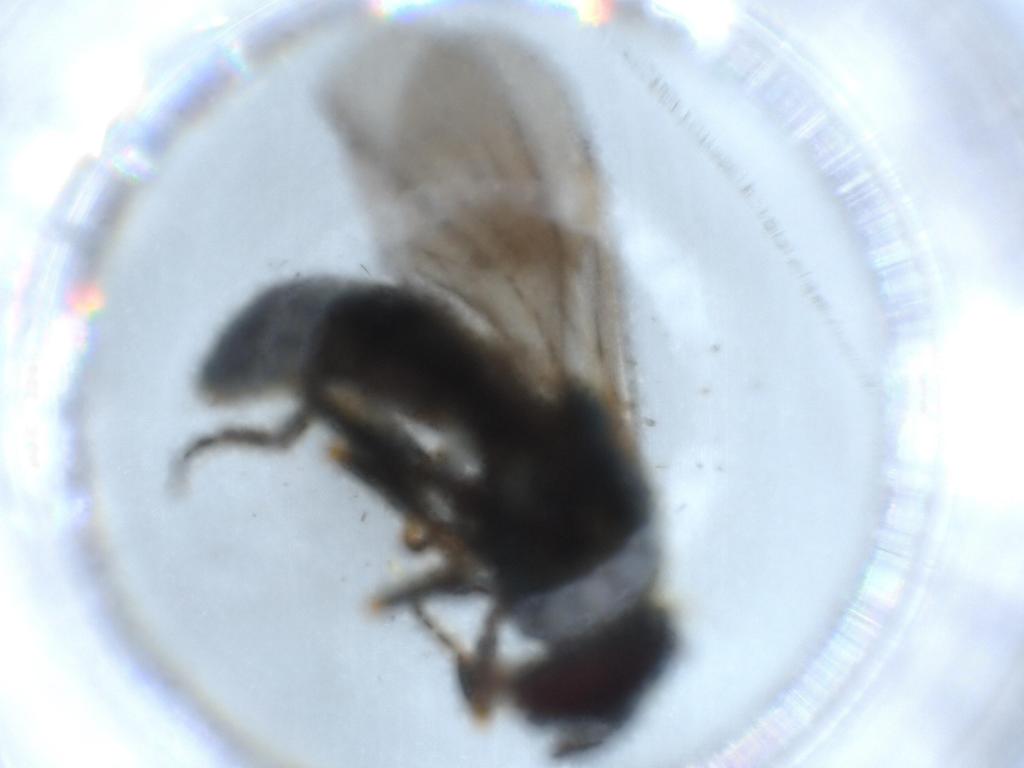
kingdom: Animalia
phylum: Arthropoda
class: Insecta
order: Diptera
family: Syrphidae
